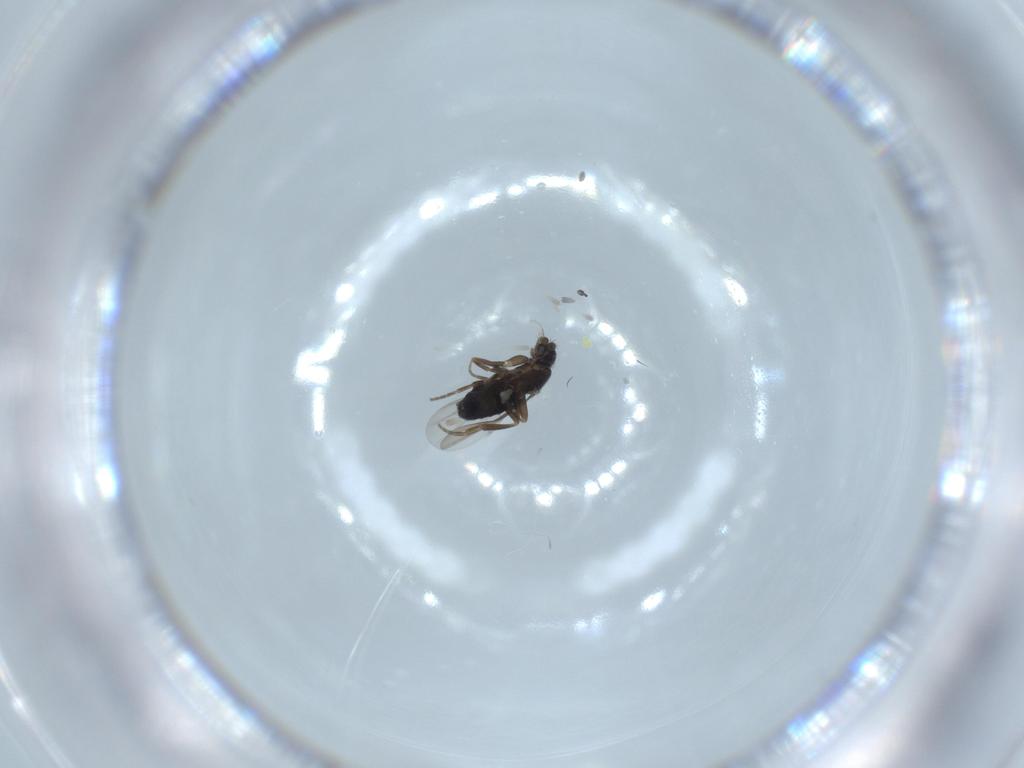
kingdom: Animalia
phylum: Arthropoda
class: Insecta
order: Diptera
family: Phoridae
